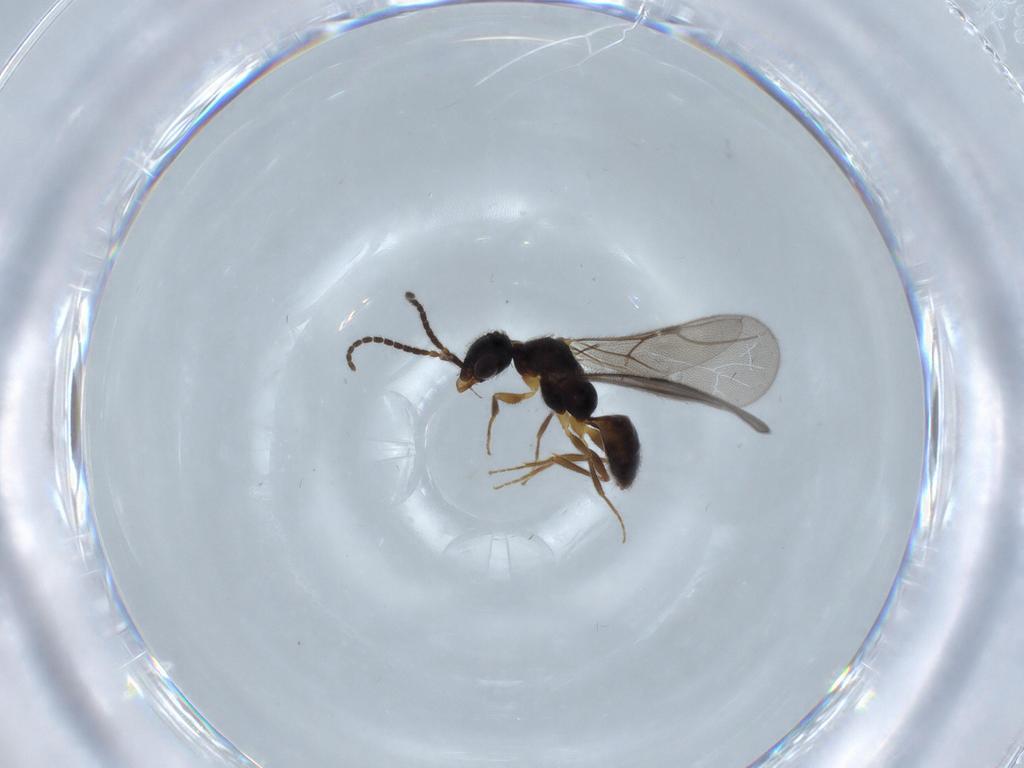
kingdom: Animalia
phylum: Arthropoda
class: Insecta
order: Hymenoptera
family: Bethylidae
